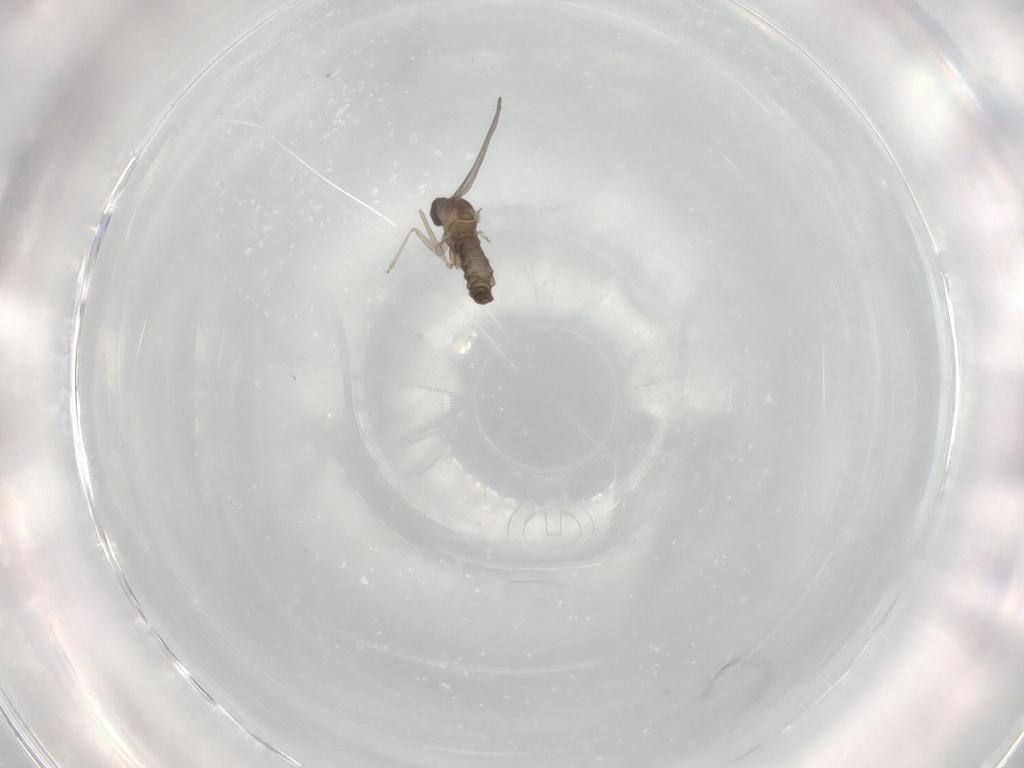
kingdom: Animalia
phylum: Arthropoda
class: Insecta
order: Diptera
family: Cecidomyiidae
